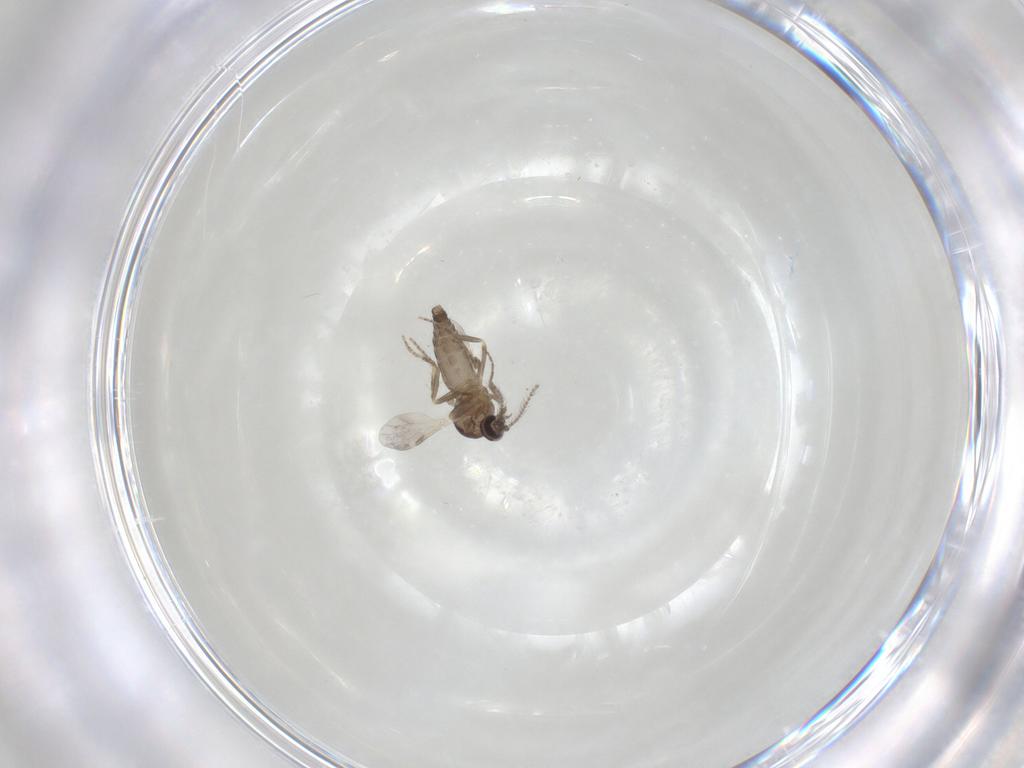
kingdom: Animalia
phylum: Arthropoda
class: Insecta
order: Diptera
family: Ceratopogonidae
